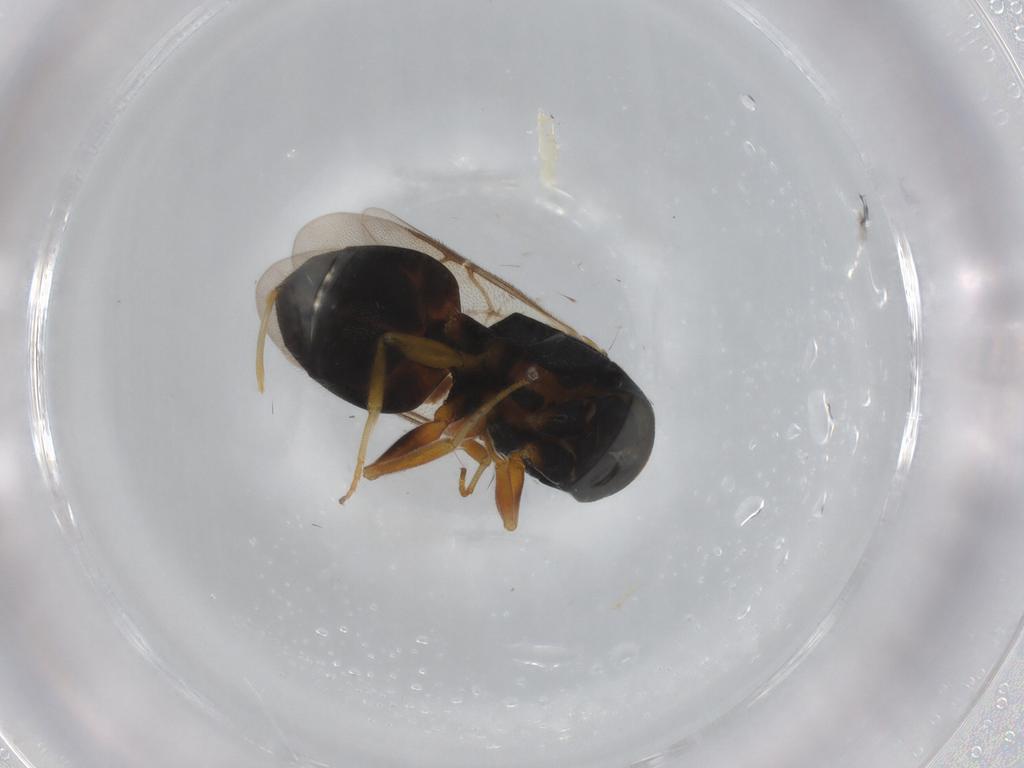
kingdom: Animalia
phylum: Arthropoda
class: Insecta
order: Hymenoptera
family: Chrysididae
